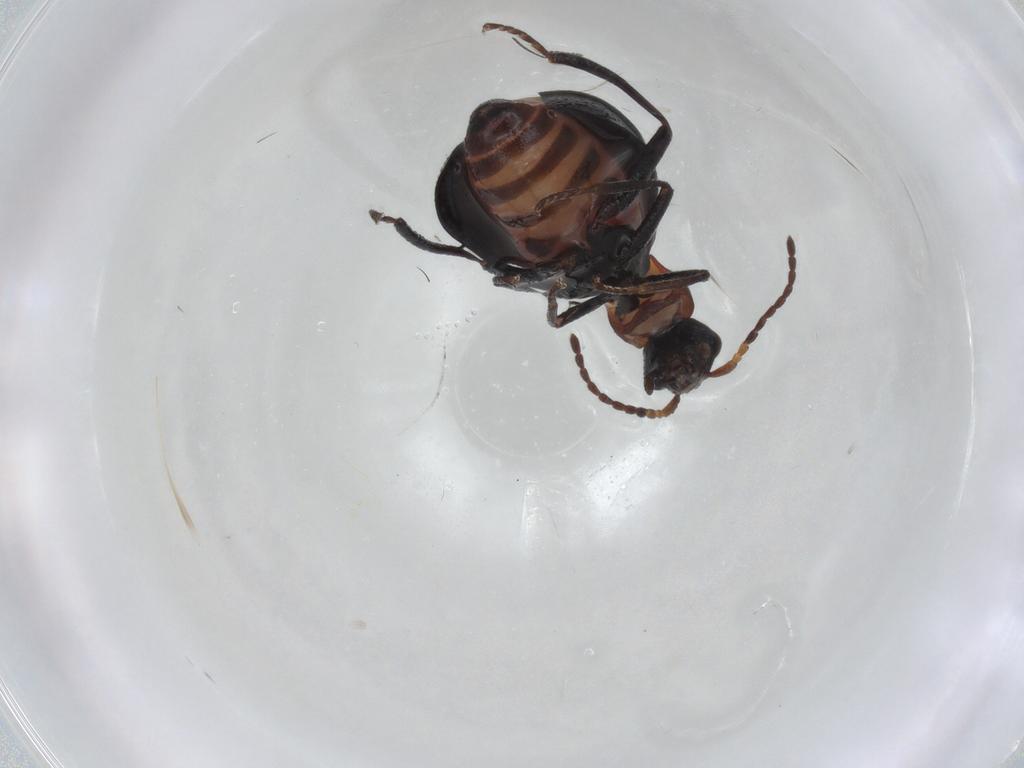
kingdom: Animalia
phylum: Arthropoda
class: Insecta
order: Coleoptera
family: Melyridae
